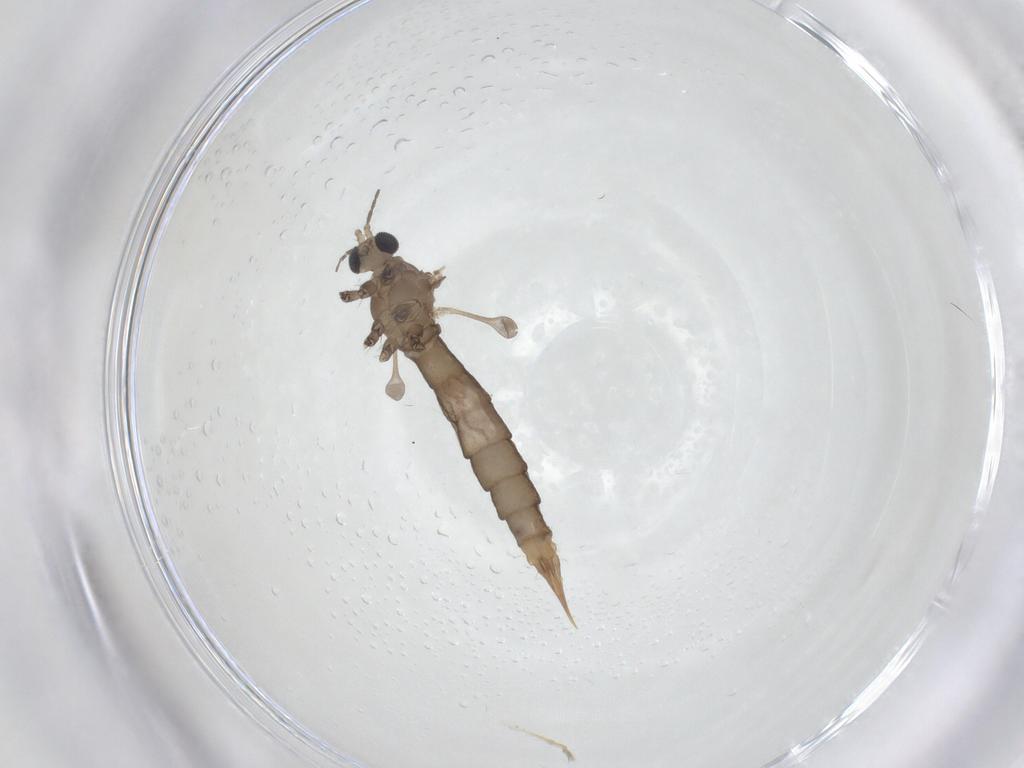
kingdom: Animalia
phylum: Arthropoda
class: Insecta
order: Diptera
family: Limoniidae
